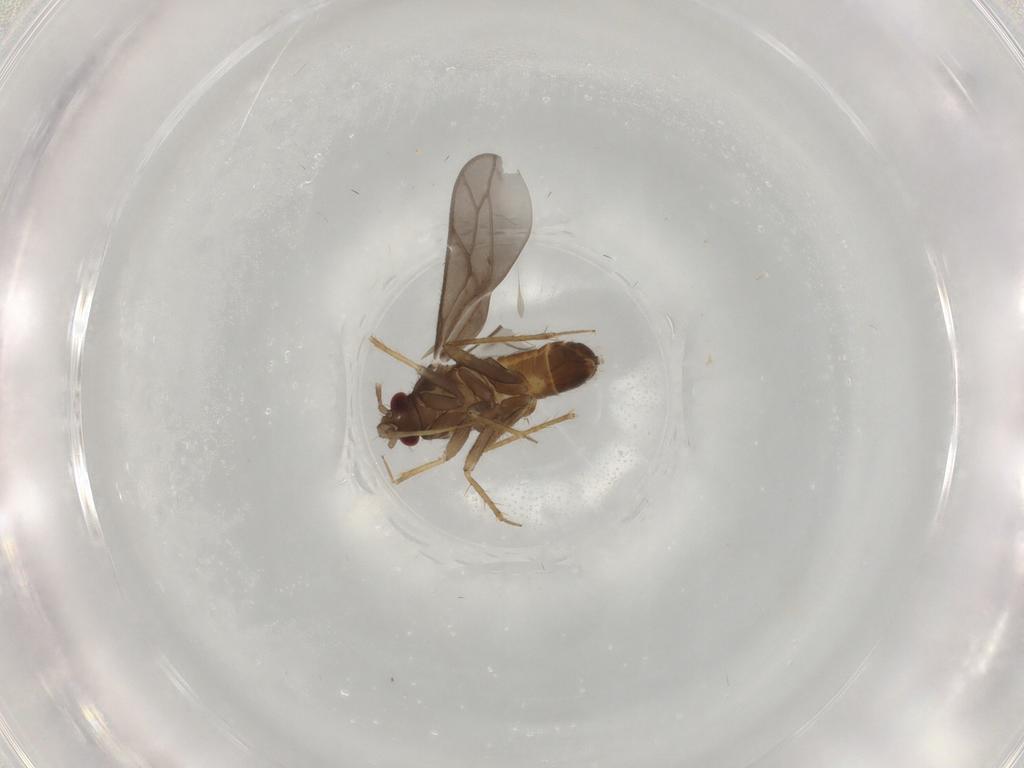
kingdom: Animalia
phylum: Arthropoda
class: Insecta
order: Hemiptera
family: Ceratocombidae
